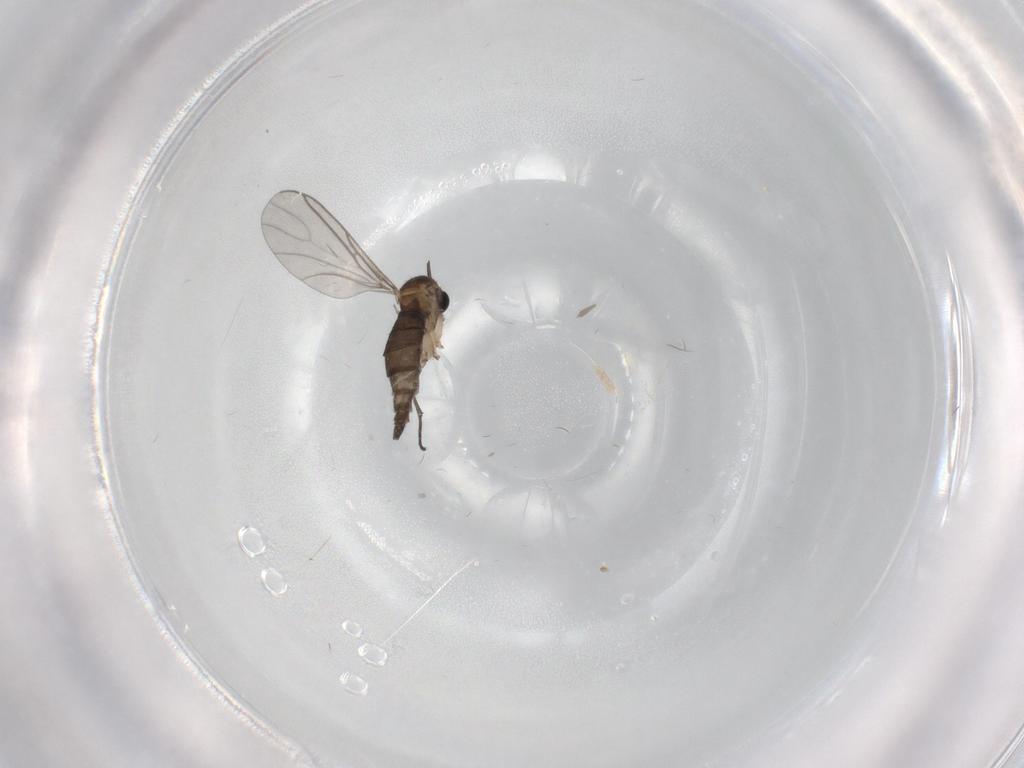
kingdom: Animalia
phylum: Arthropoda
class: Insecta
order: Diptera
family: Sciaridae
